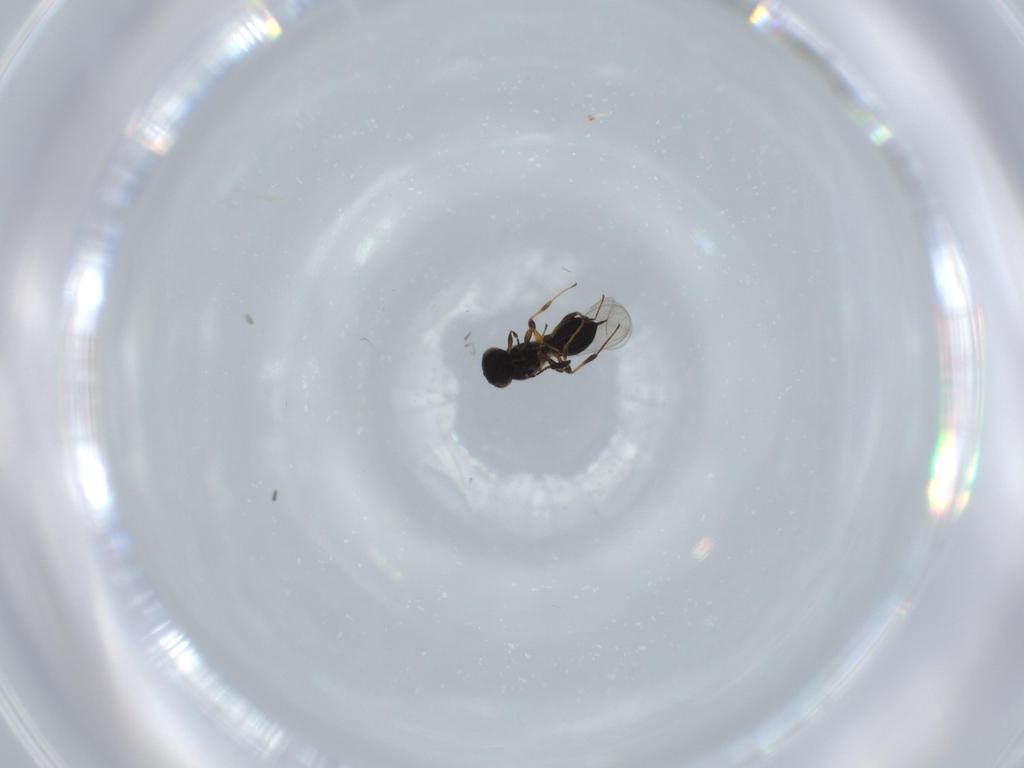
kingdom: Animalia
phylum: Arthropoda
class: Insecta
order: Hymenoptera
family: Platygastridae
